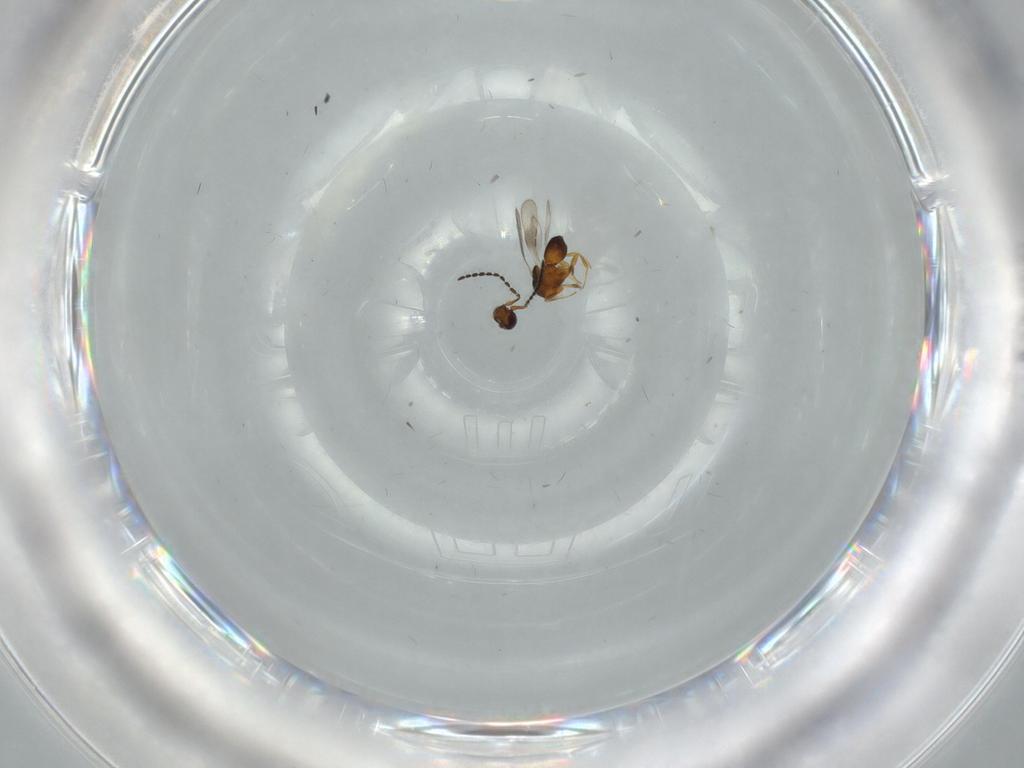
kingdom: Animalia
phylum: Arthropoda
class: Insecta
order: Hymenoptera
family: Ceraphronidae
